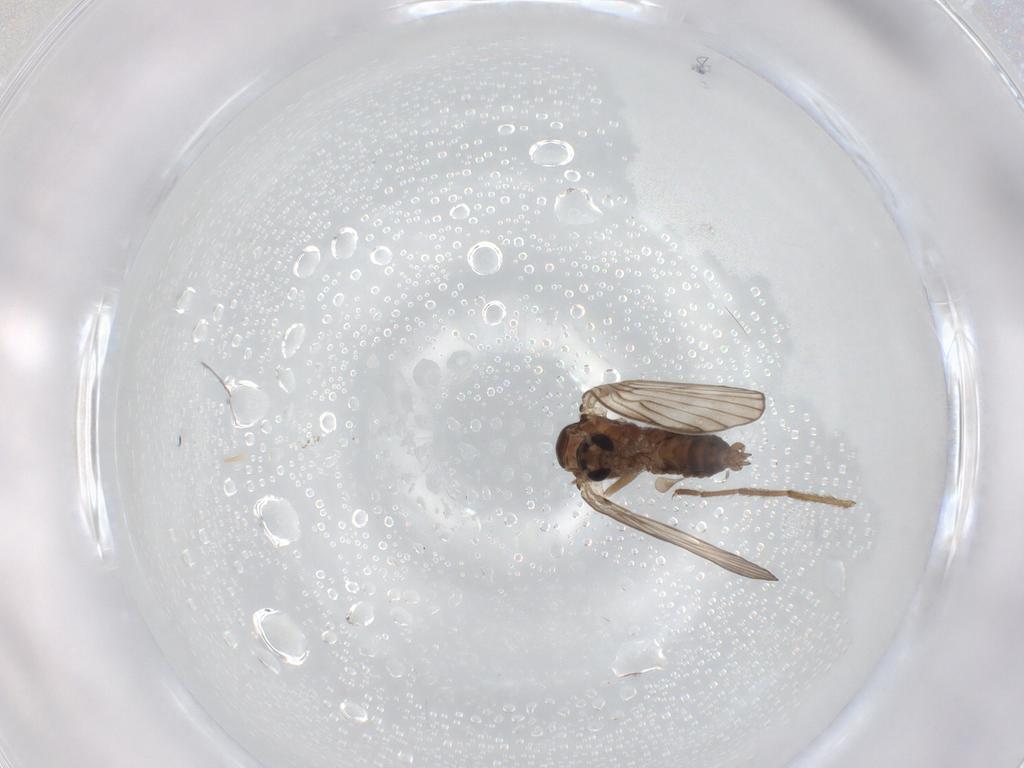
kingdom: Animalia
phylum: Arthropoda
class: Insecta
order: Diptera
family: Psychodidae
